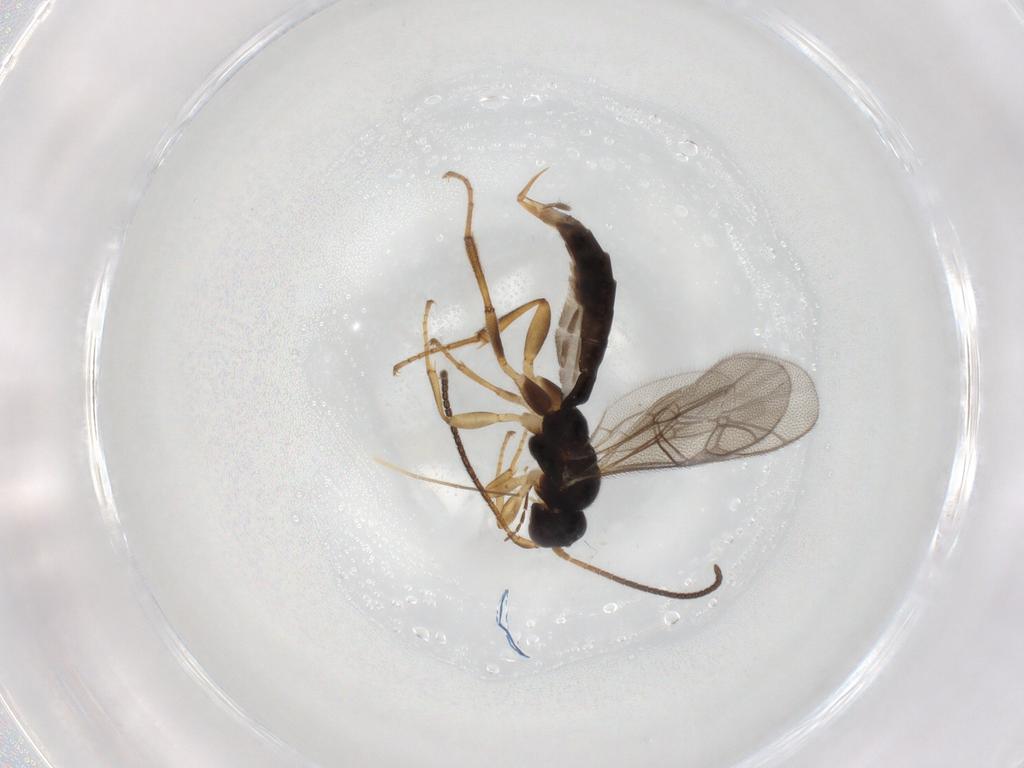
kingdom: Animalia
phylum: Arthropoda
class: Insecta
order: Hymenoptera
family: Ichneumonidae
